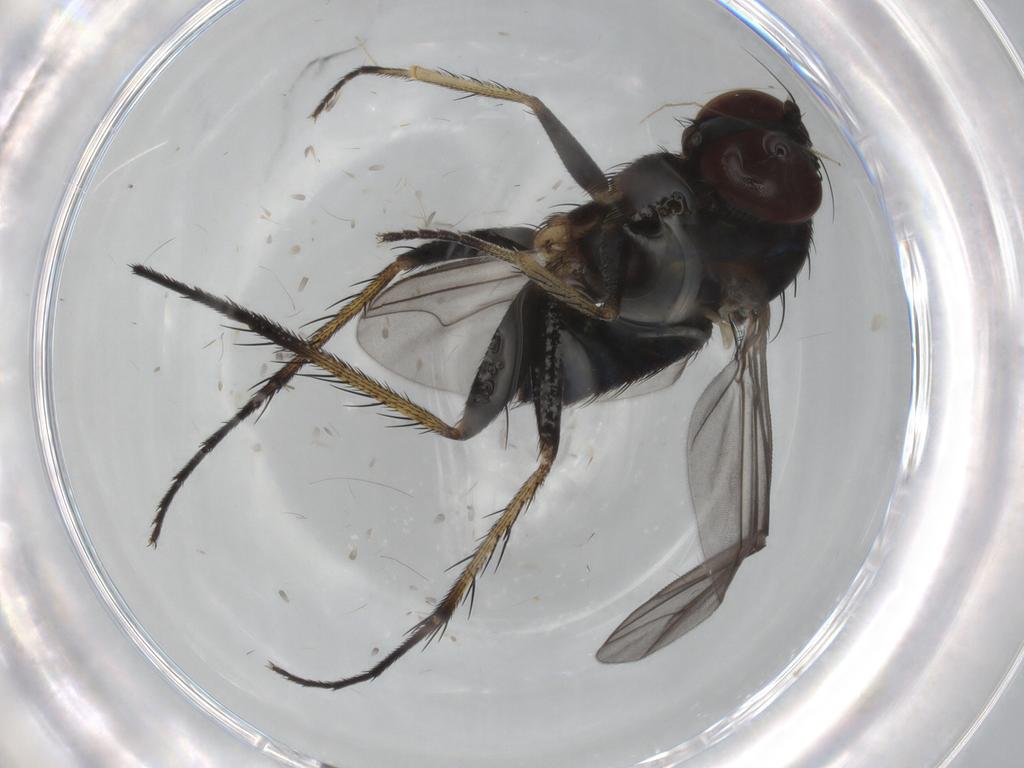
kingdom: Animalia
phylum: Arthropoda
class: Insecta
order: Diptera
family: Dolichopodidae
